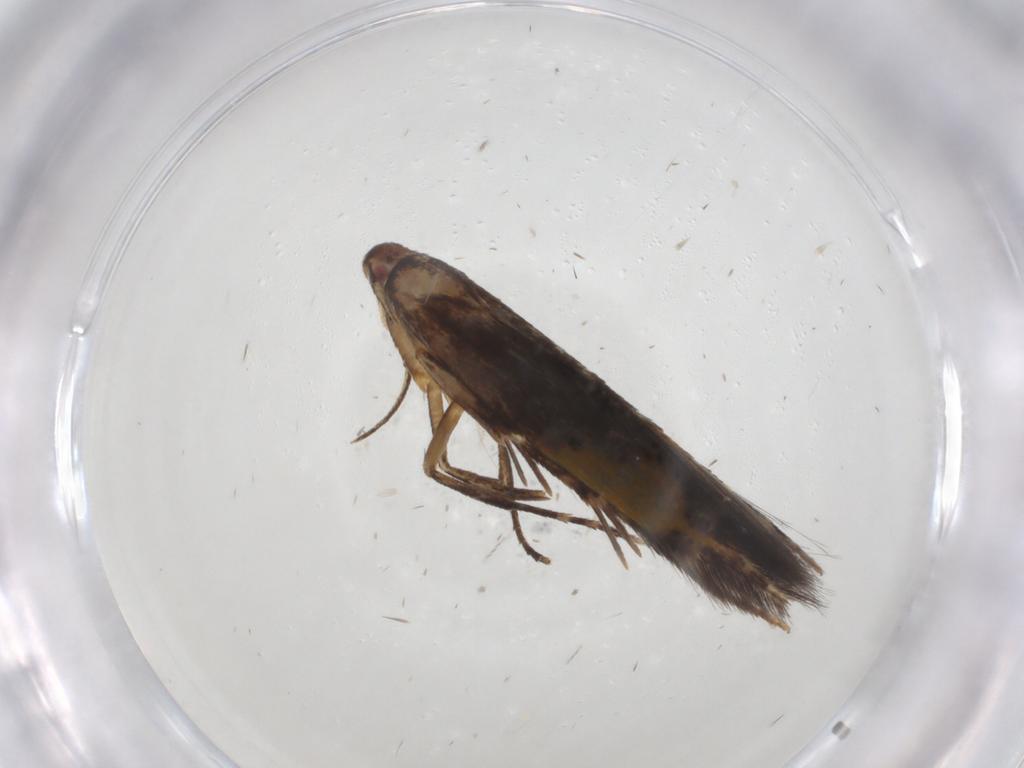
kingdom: Animalia
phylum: Arthropoda
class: Insecta
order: Lepidoptera
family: Cosmopterigidae
